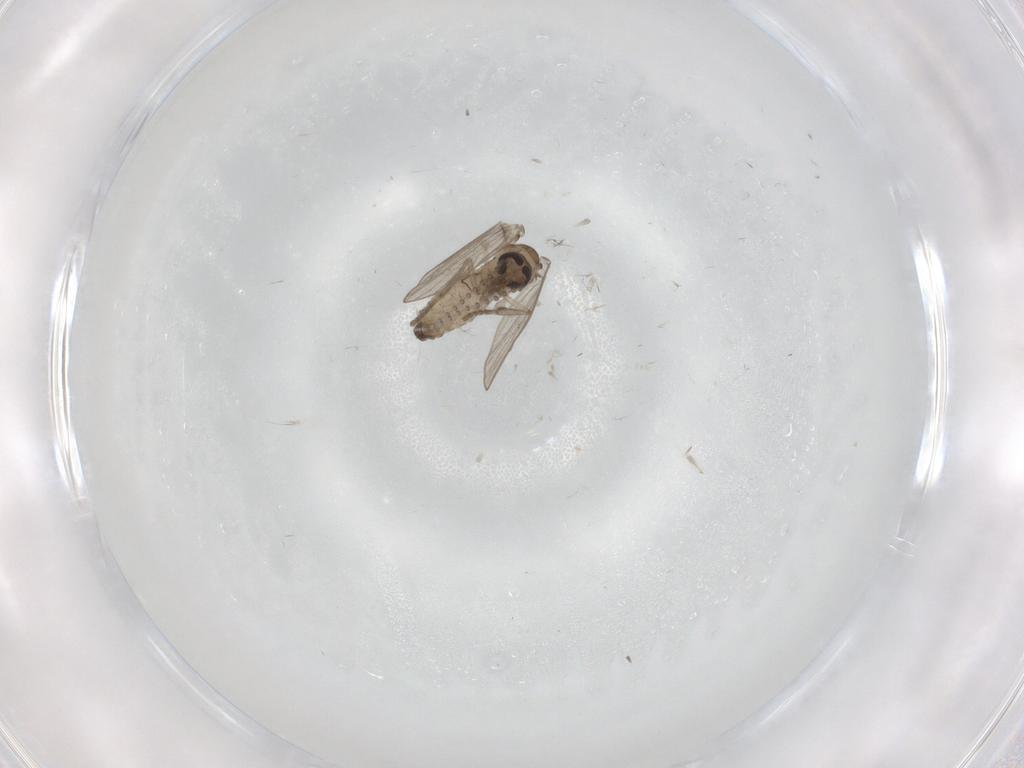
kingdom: Animalia
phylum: Arthropoda
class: Insecta
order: Diptera
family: Psychodidae
